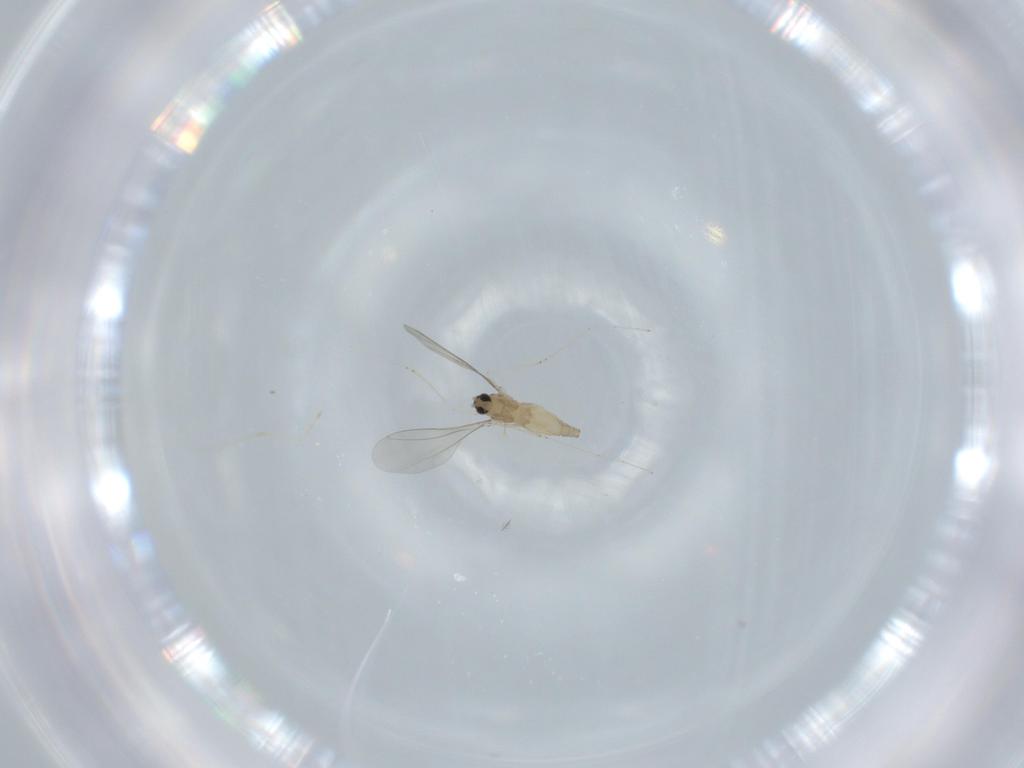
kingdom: Animalia
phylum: Arthropoda
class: Insecta
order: Diptera
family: Cecidomyiidae
